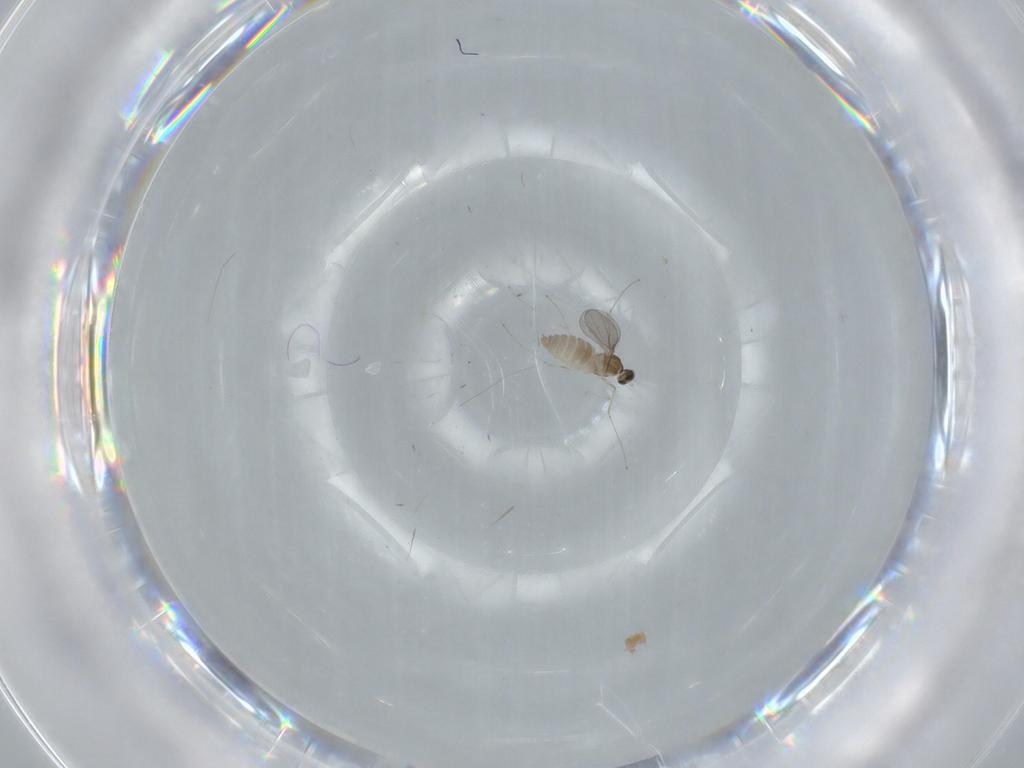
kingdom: Animalia
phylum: Arthropoda
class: Insecta
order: Diptera
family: Cecidomyiidae
